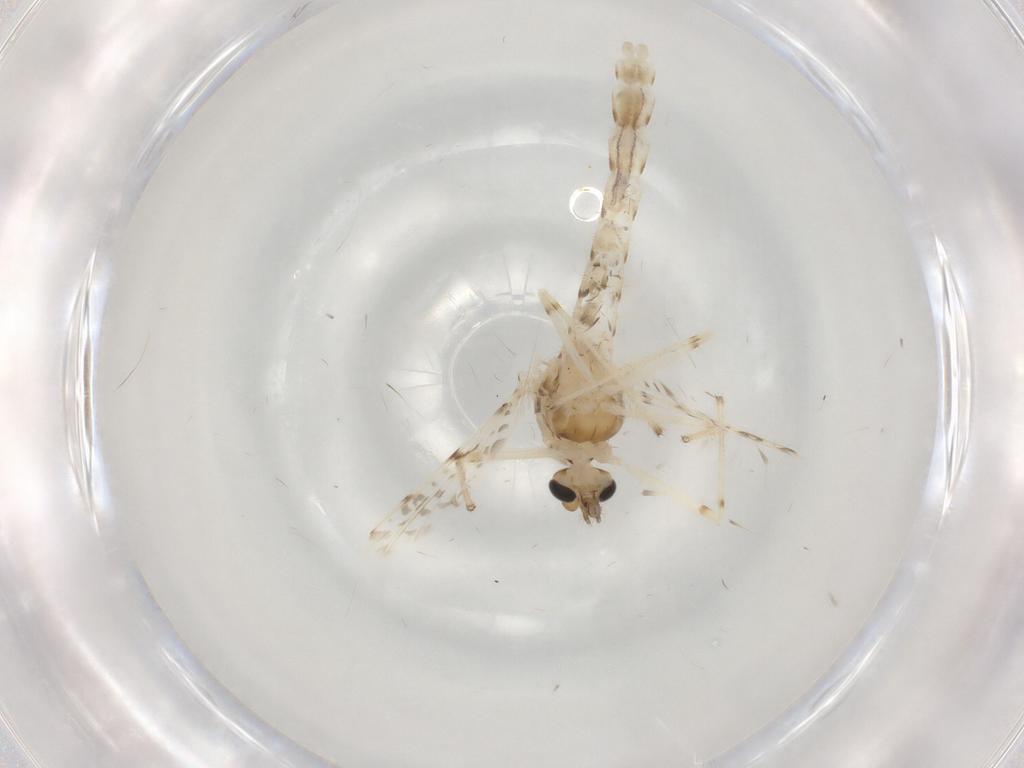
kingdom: Animalia
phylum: Arthropoda
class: Insecta
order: Diptera
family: Chironomidae
